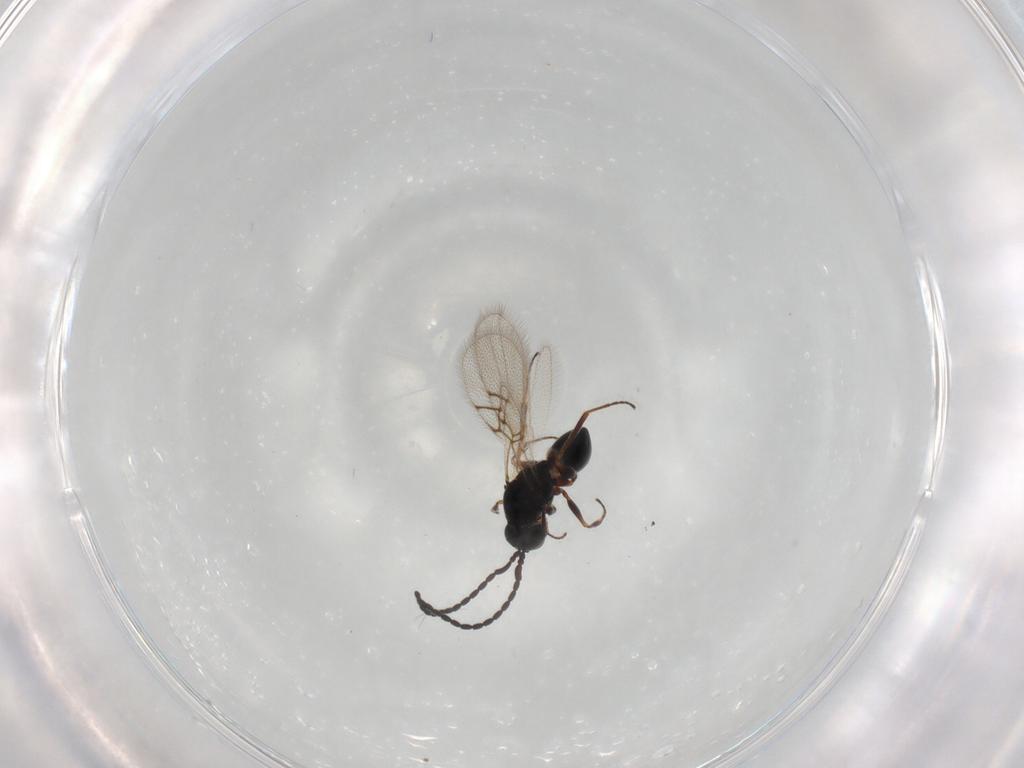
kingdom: Animalia
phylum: Arthropoda
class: Insecta
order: Hymenoptera
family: Figitidae
